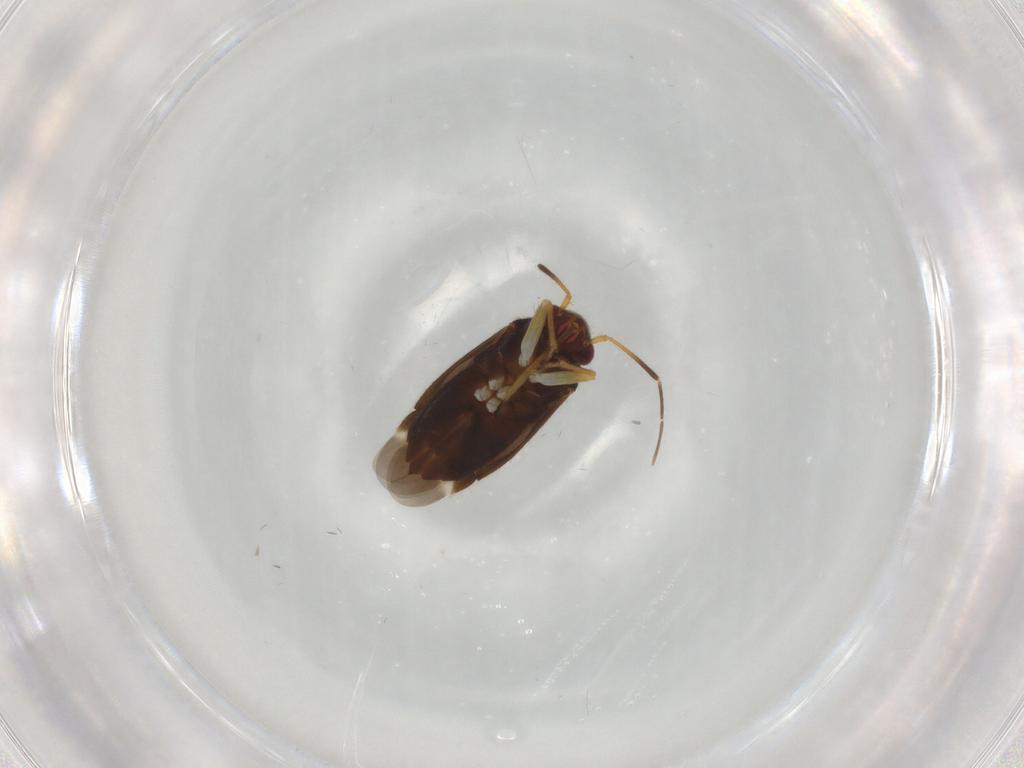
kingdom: Animalia
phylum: Arthropoda
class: Insecta
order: Hemiptera
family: Miridae
